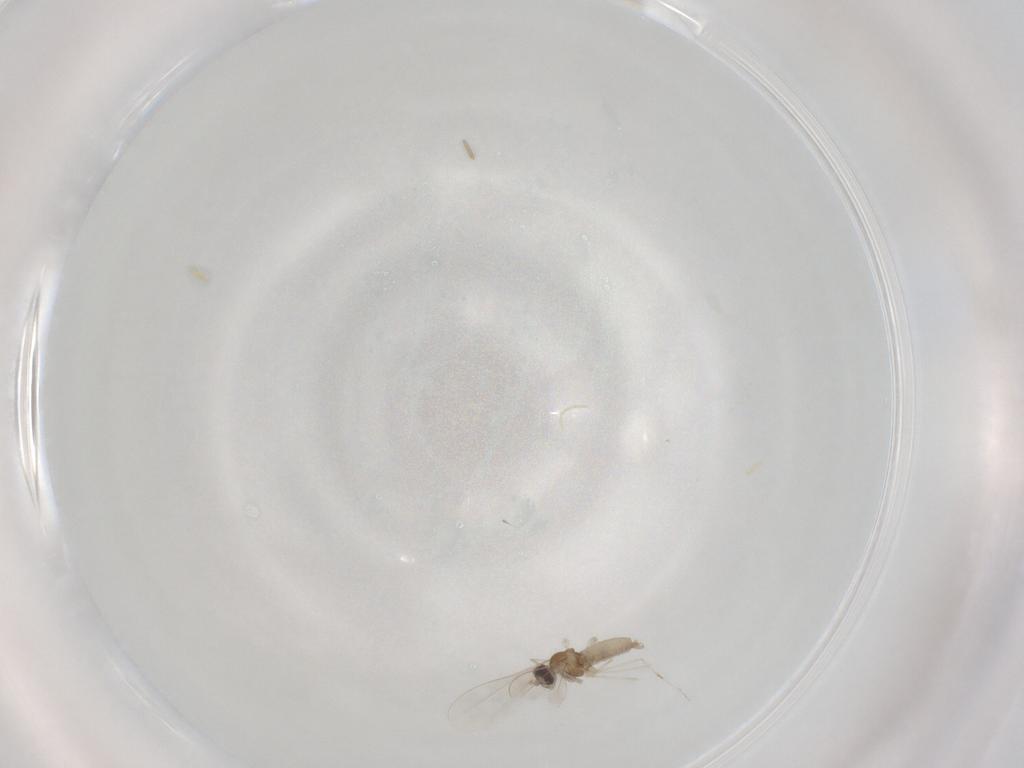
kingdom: Animalia
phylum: Arthropoda
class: Insecta
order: Diptera
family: Cecidomyiidae
